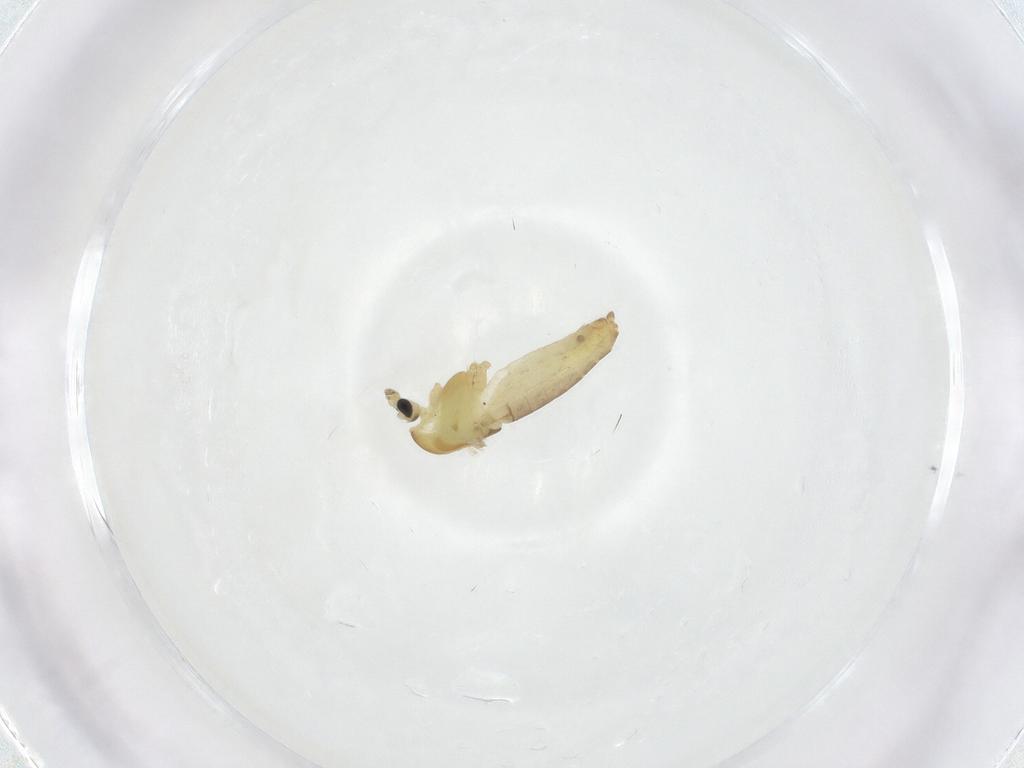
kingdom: Animalia
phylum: Arthropoda
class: Insecta
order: Diptera
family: Chironomidae
